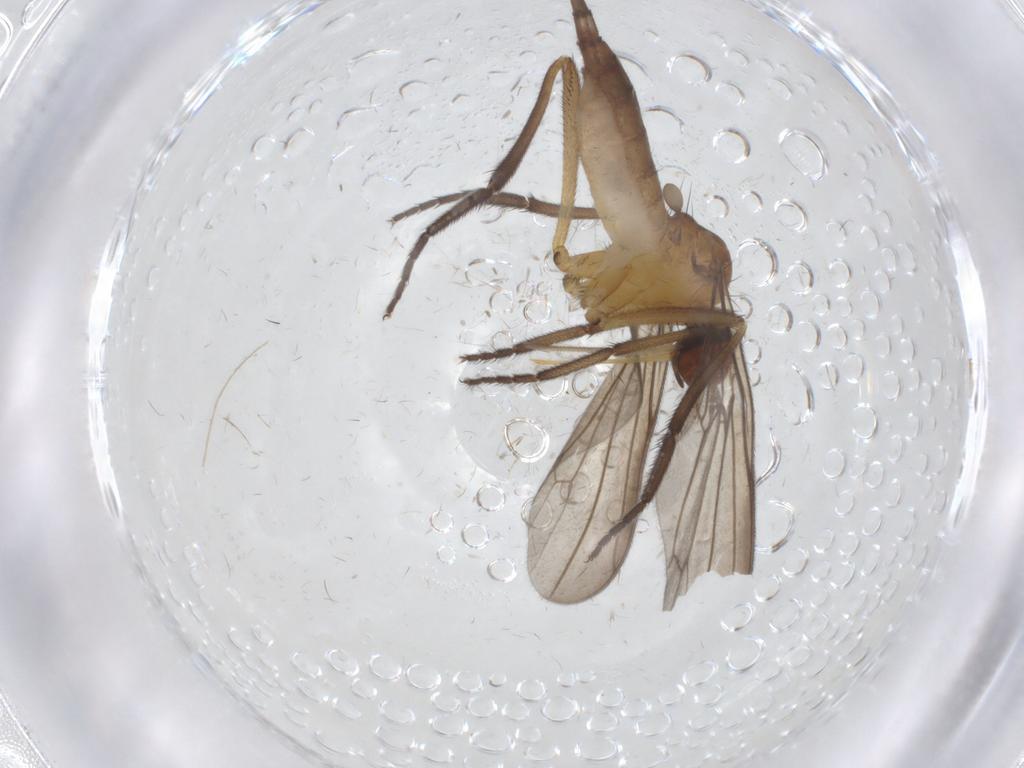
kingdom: Animalia
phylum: Arthropoda
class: Insecta
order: Diptera
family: Empididae
